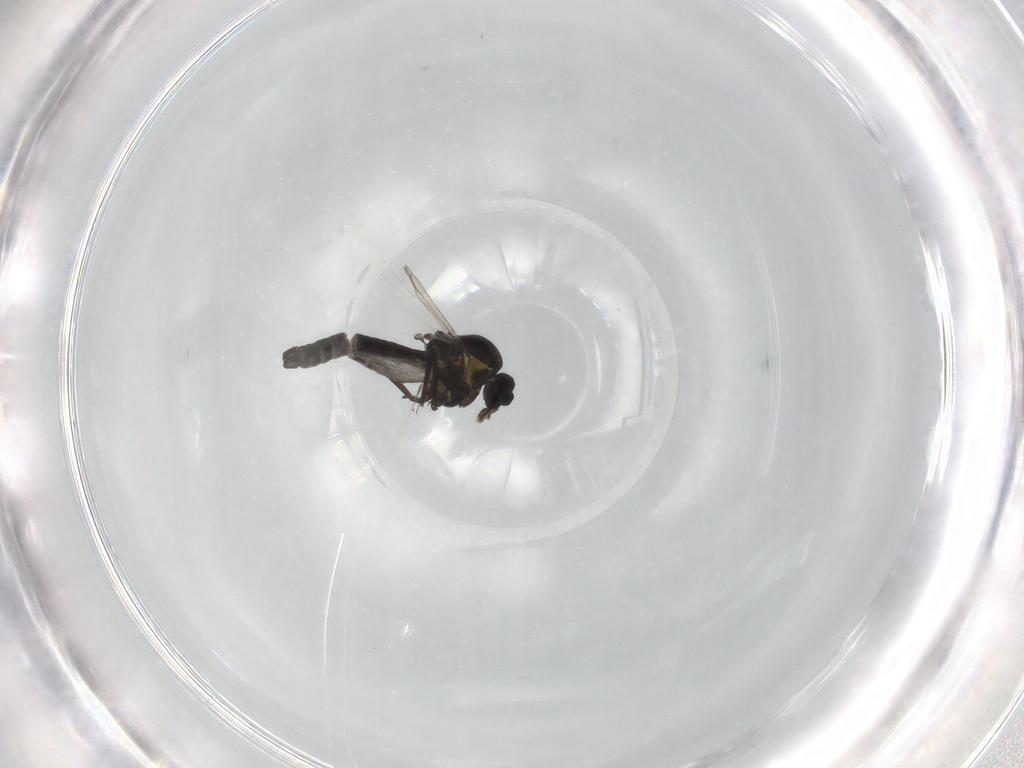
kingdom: Animalia
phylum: Arthropoda
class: Insecta
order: Diptera
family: Ceratopogonidae
